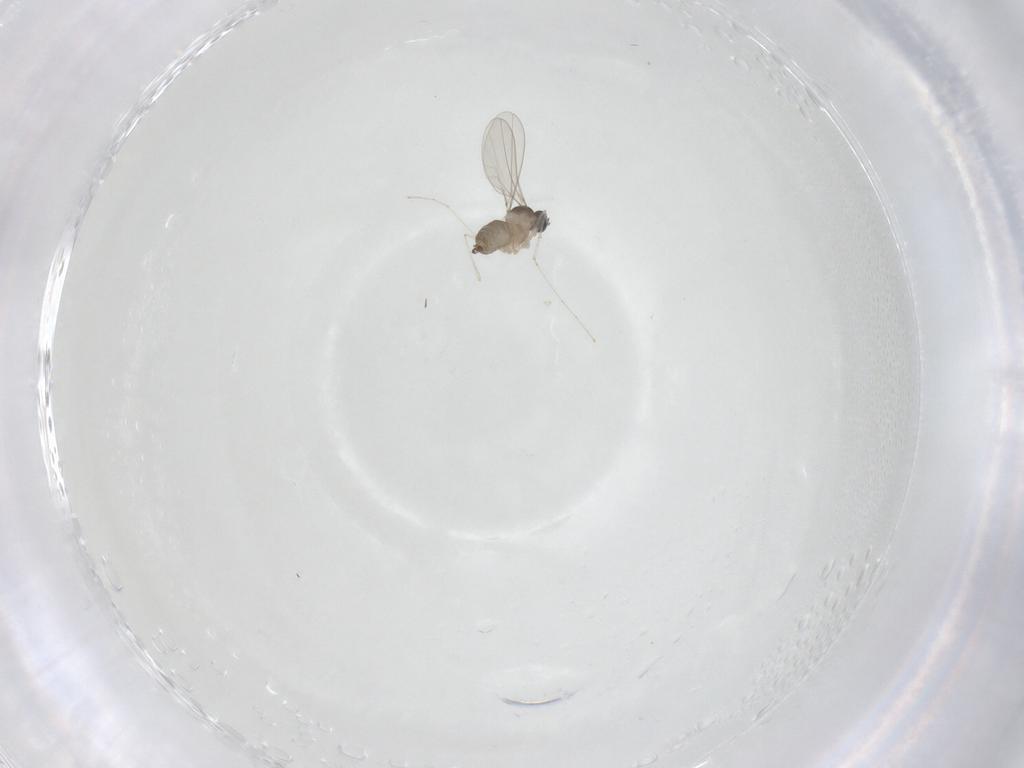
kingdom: Animalia
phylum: Arthropoda
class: Insecta
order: Diptera
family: Cecidomyiidae
